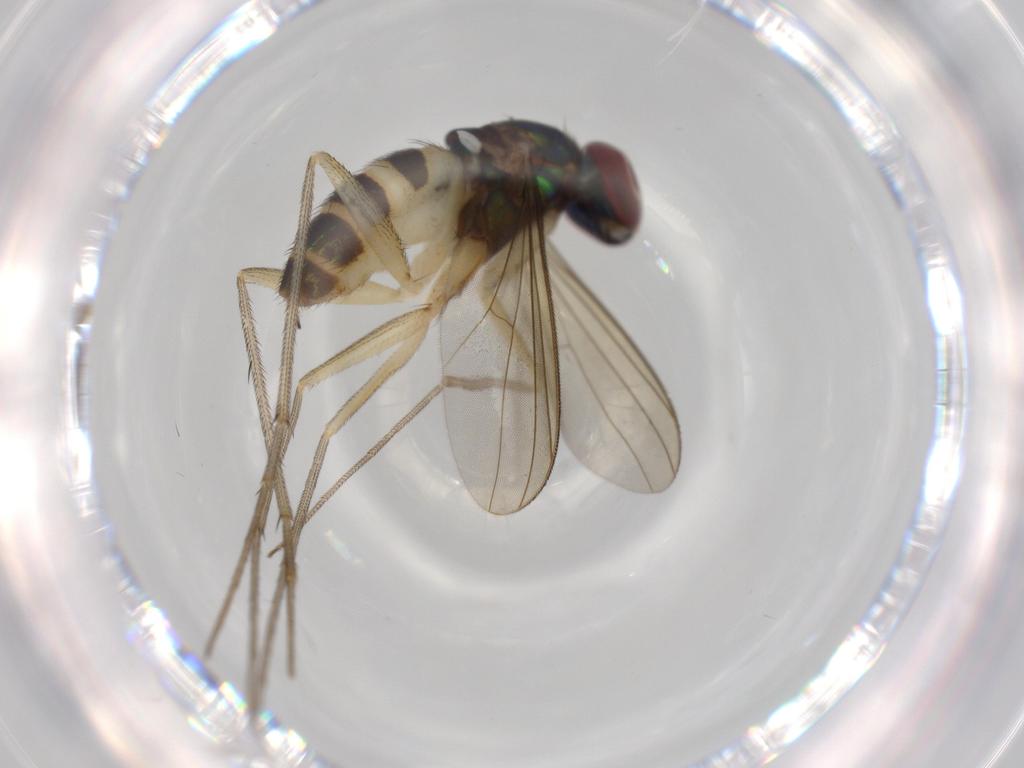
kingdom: Animalia
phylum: Arthropoda
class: Insecta
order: Diptera
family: Dolichopodidae
